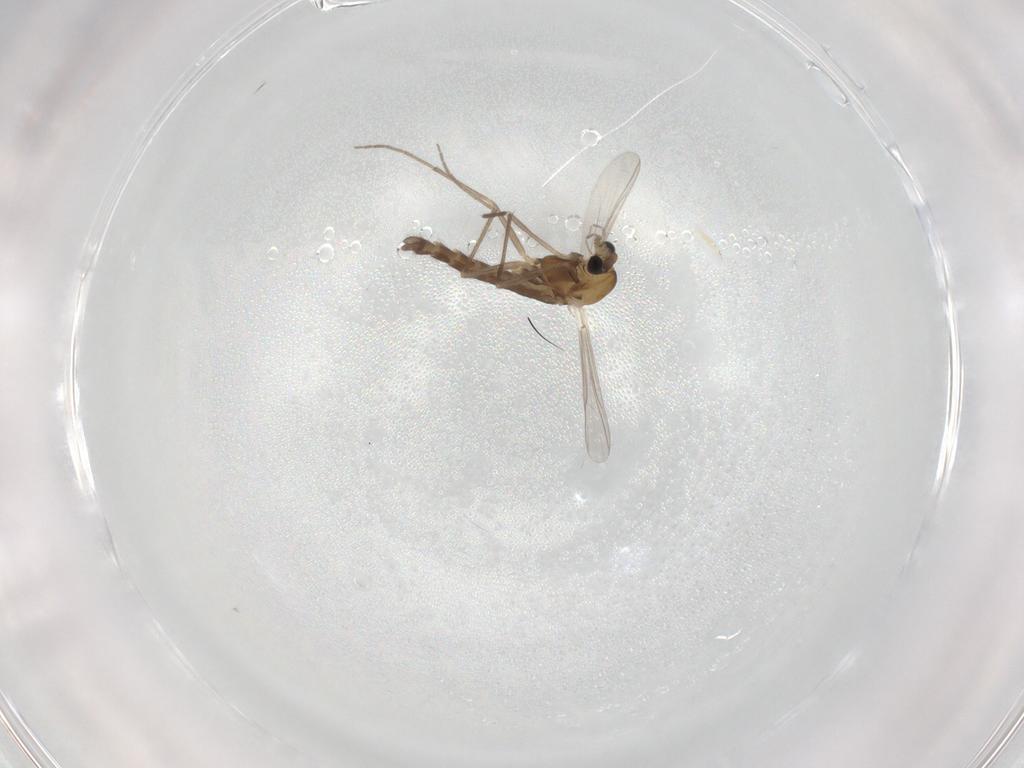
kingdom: Animalia
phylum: Arthropoda
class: Insecta
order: Diptera
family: Chironomidae
